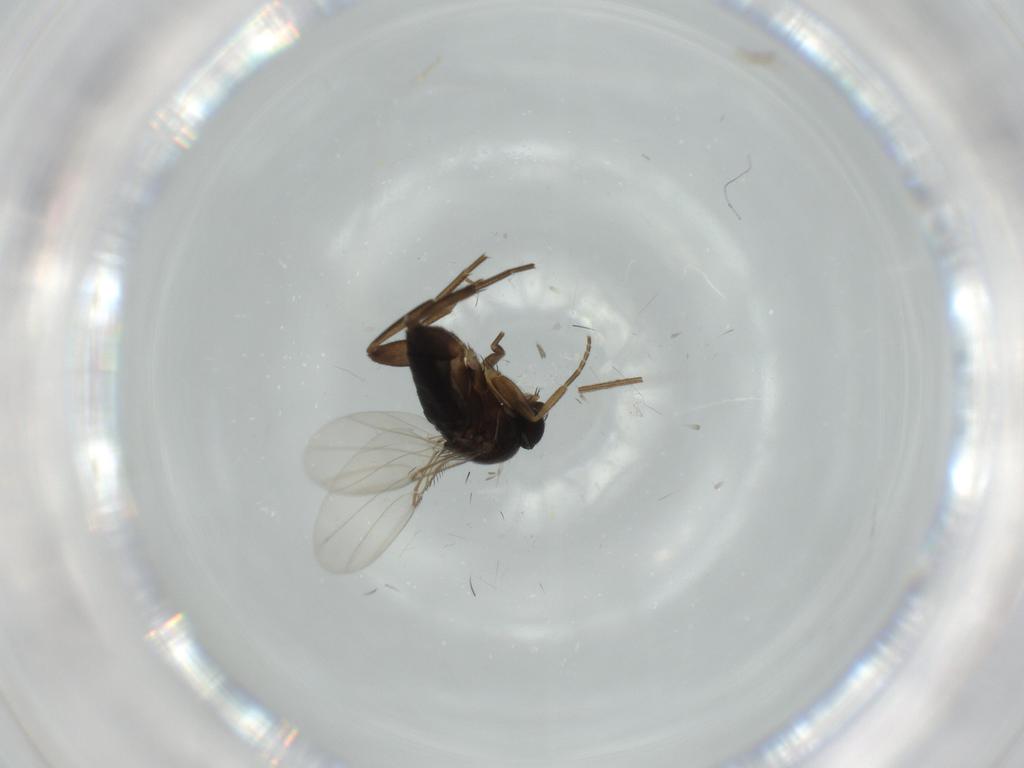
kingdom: Animalia
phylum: Arthropoda
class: Insecta
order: Diptera
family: Phoridae
